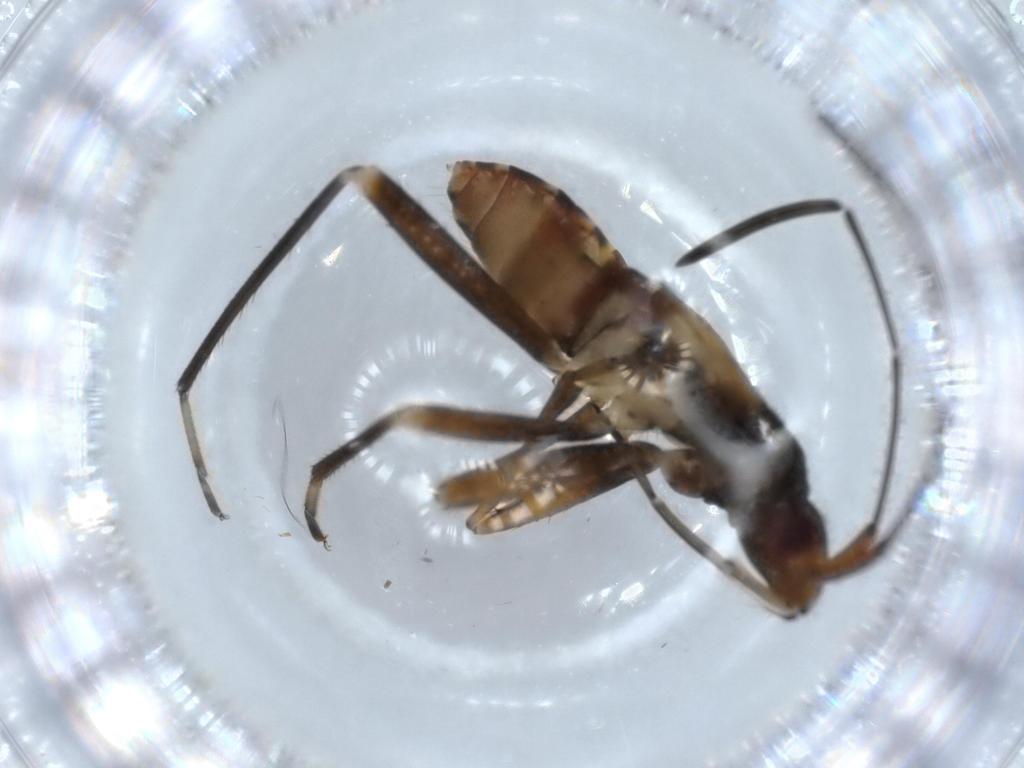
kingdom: Animalia
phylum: Arthropoda
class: Insecta
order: Hemiptera
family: Rhyparochromidae
